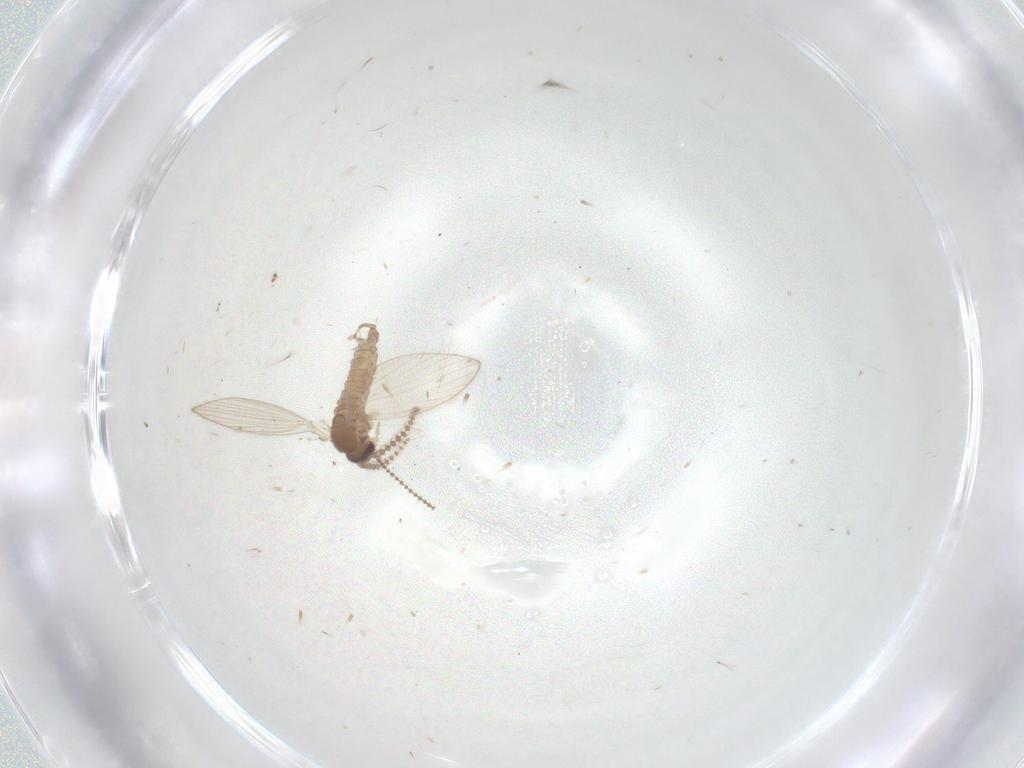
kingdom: Animalia
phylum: Arthropoda
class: Insecta
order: Diptera
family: Psychodidae
